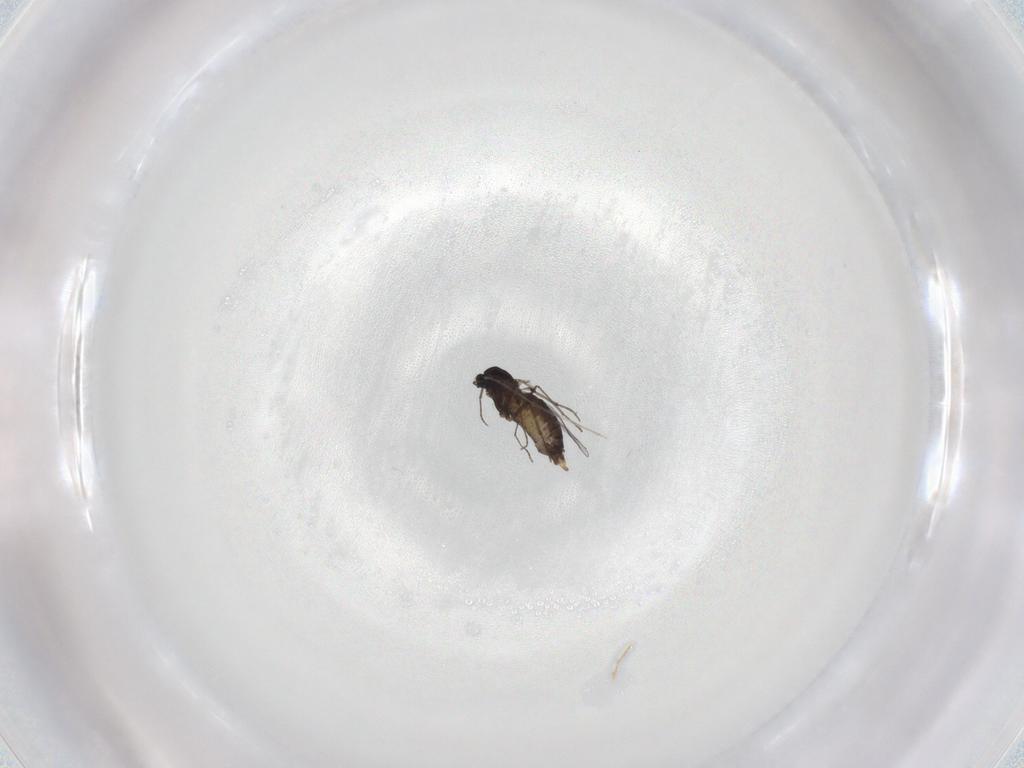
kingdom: Animalia
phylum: Arthropoda
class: Insecta
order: Diptera
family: Chironomidae
